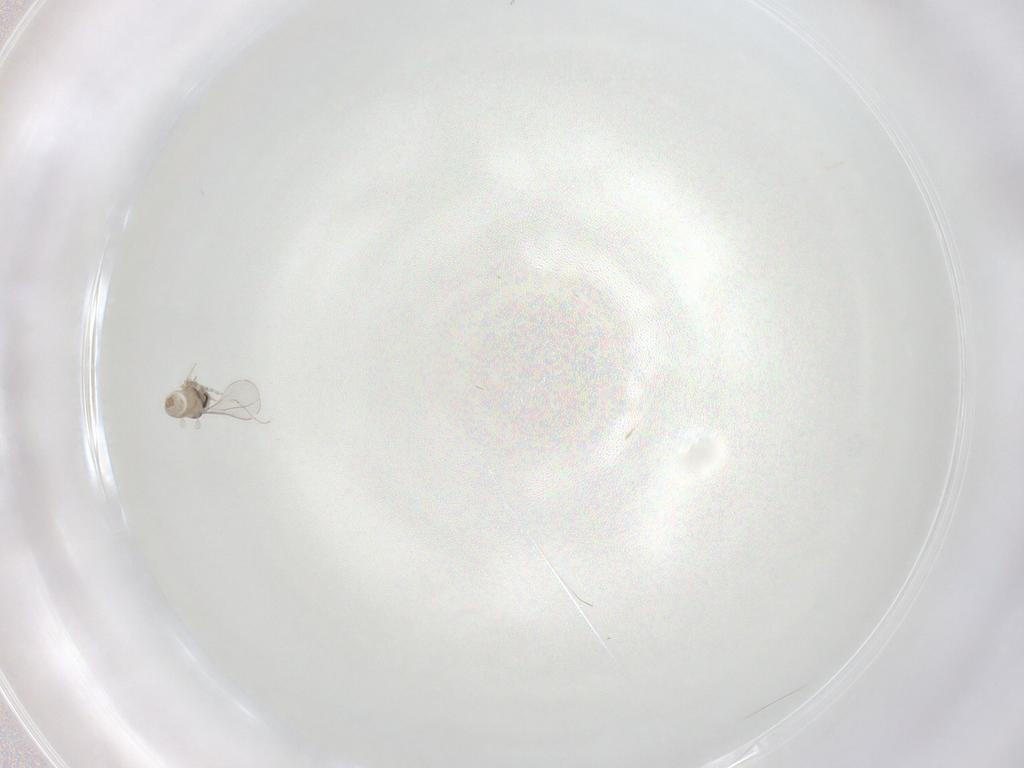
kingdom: Animalia
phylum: Arthropoda
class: Insecta
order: Diptera
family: Cecidomyiidae
